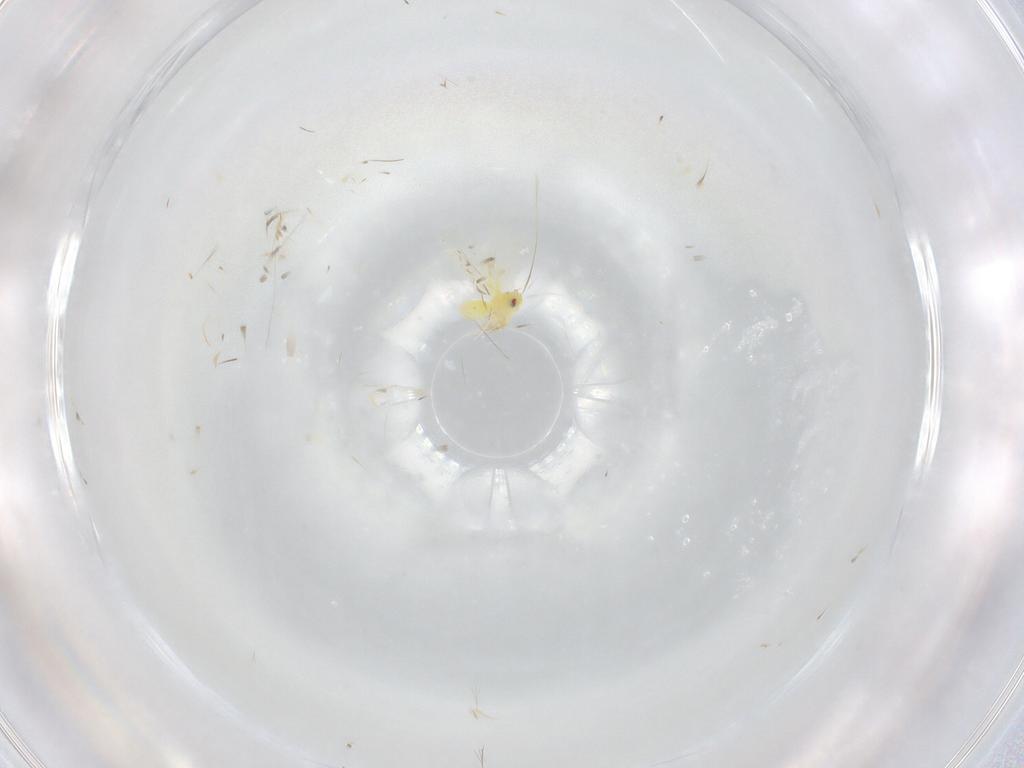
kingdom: Animalia
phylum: Arthropoda
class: Insecta
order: Hemiptera
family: Aleyrodidae
